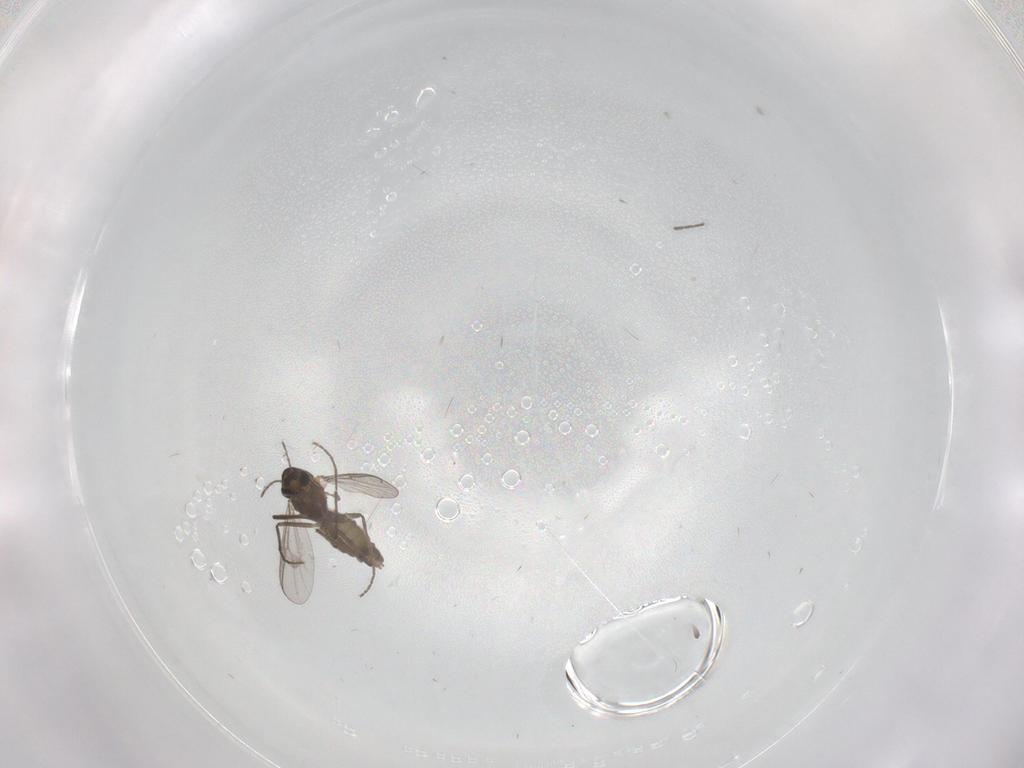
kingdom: Animalia
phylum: Arthropoda
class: Insecta
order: Diptera
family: Chironomidae
